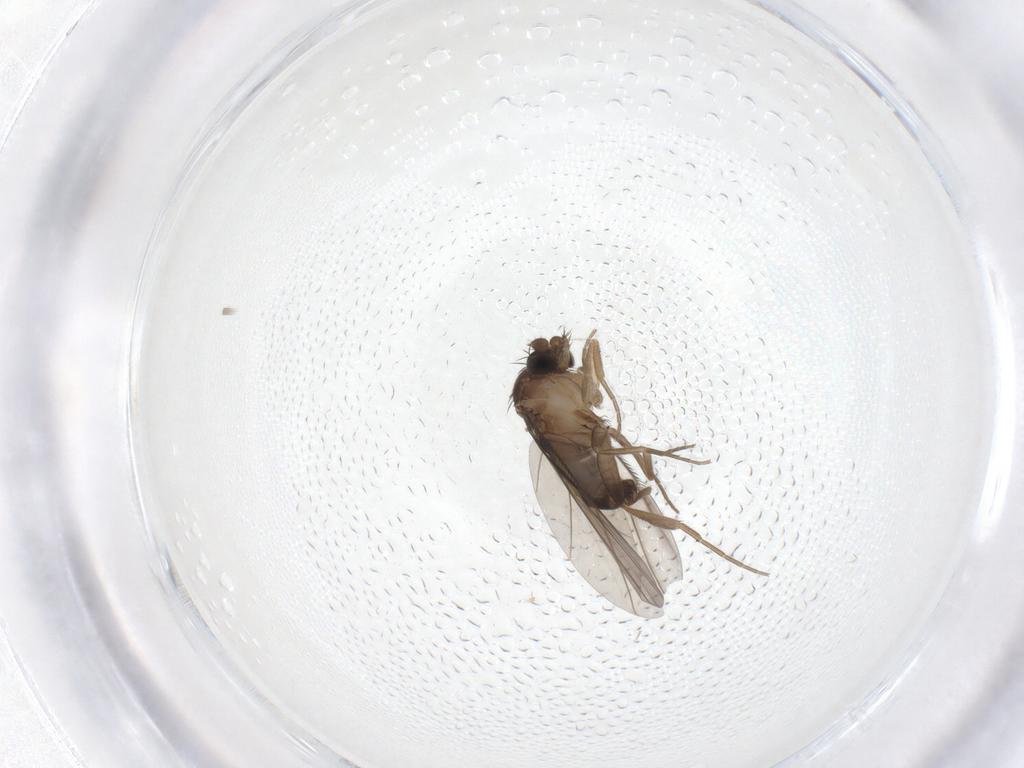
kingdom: Animalia
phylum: Arthropoda
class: Insecta
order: Diptera
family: Phoridae
